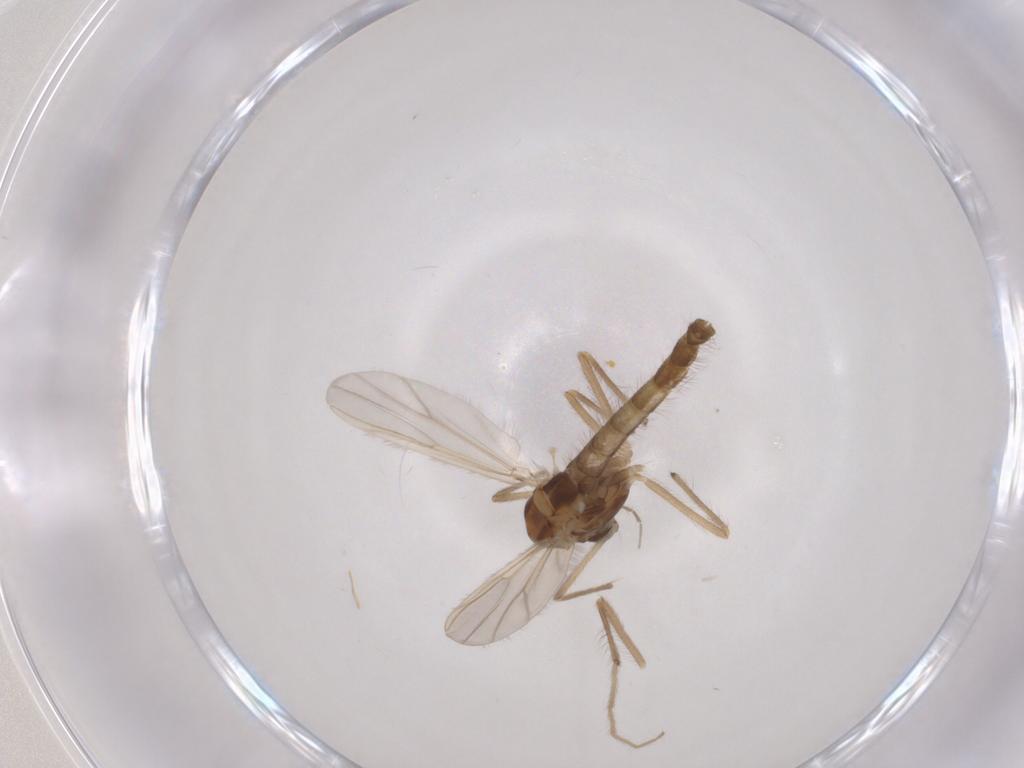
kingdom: Animalia
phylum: Arthropoda
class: Insecta
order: Diptera
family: Chironomidae
